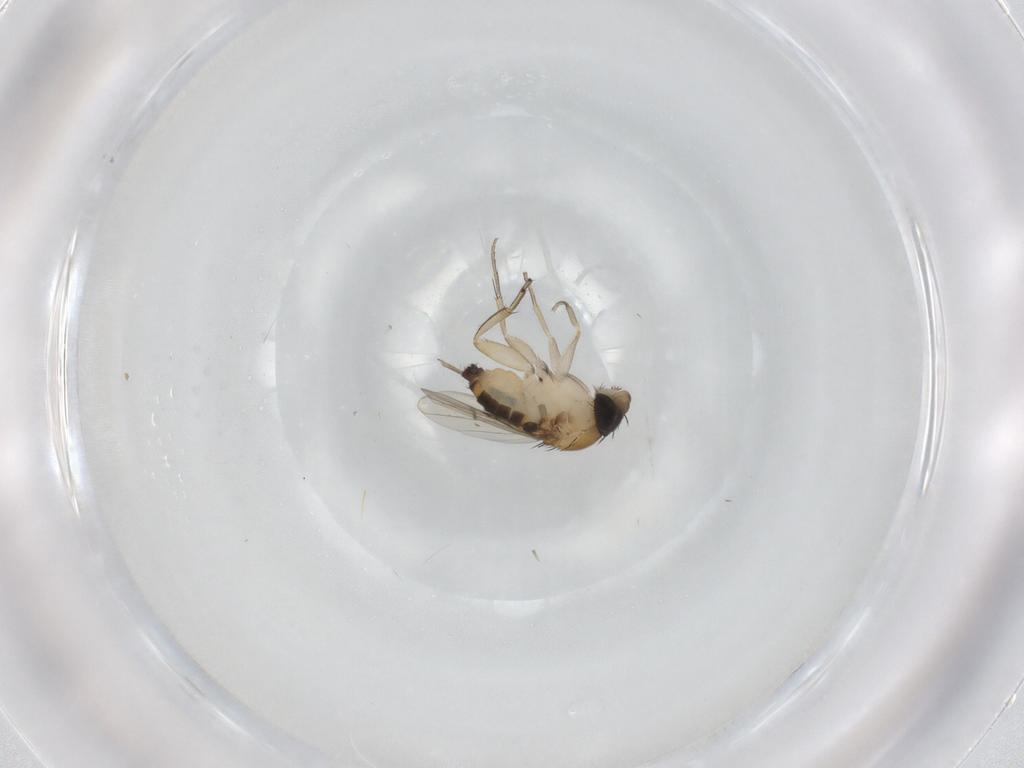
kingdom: Animalia
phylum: Arthropoda
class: Insecta
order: Diptera
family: Phoridae
